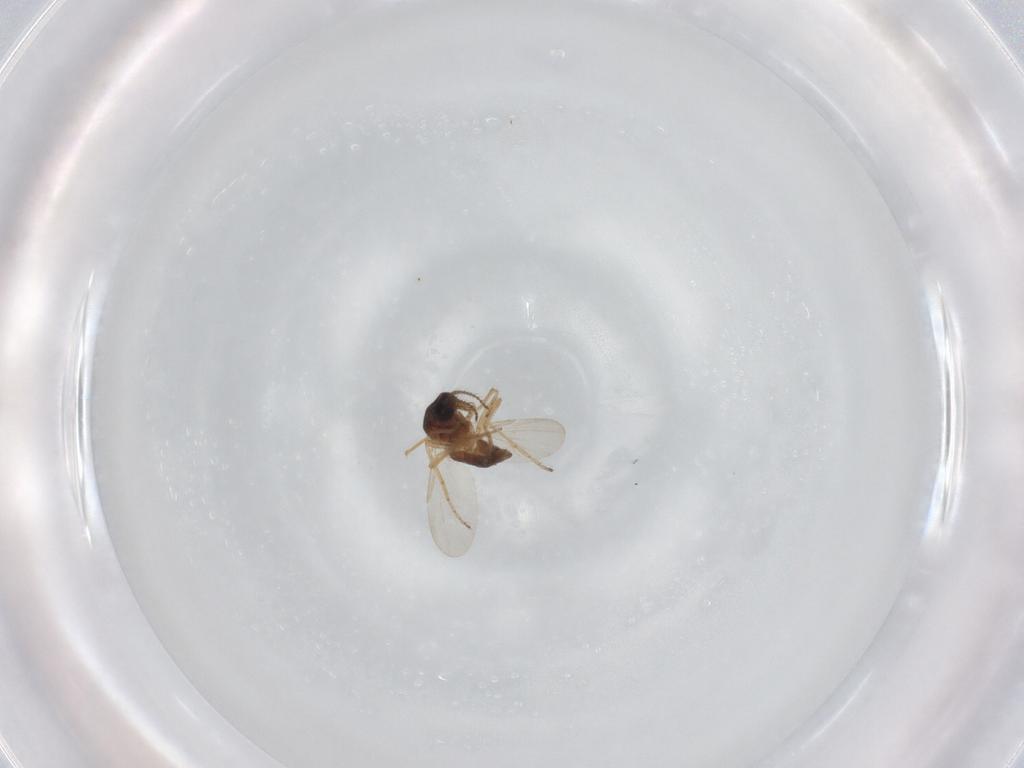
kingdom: Animalia
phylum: Arthropoda
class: Insecta
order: Diptera
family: Ceratopogonidae
